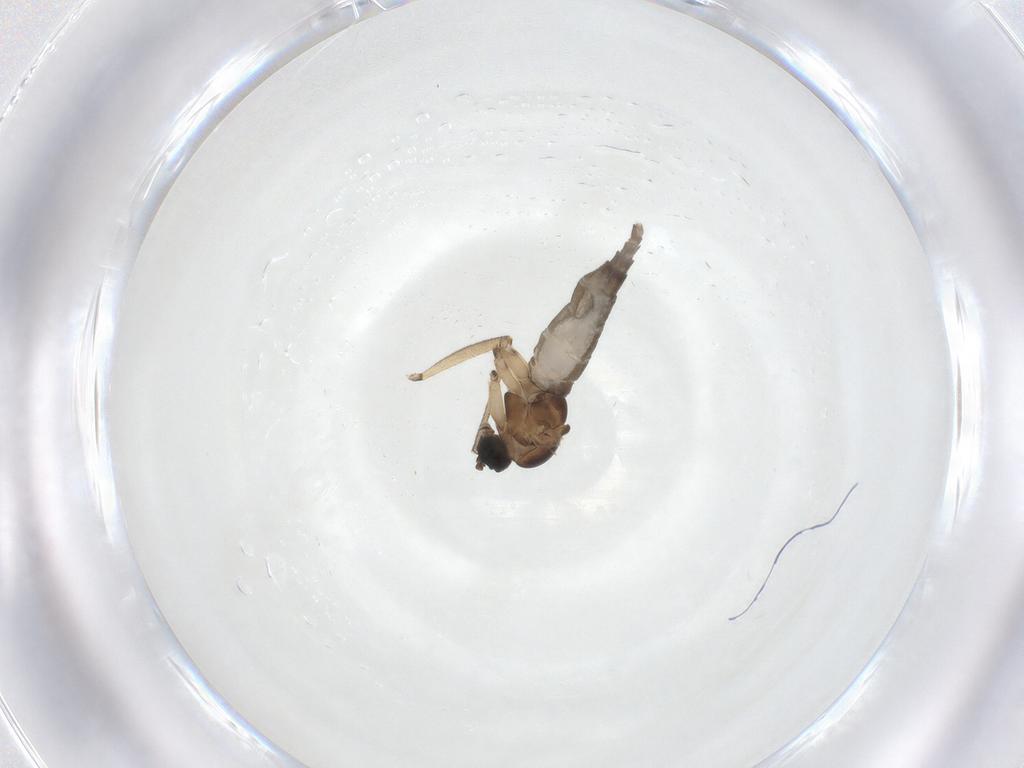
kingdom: Animalia
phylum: Arthropoda
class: Insecta
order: Diptera
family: Sciaridae
